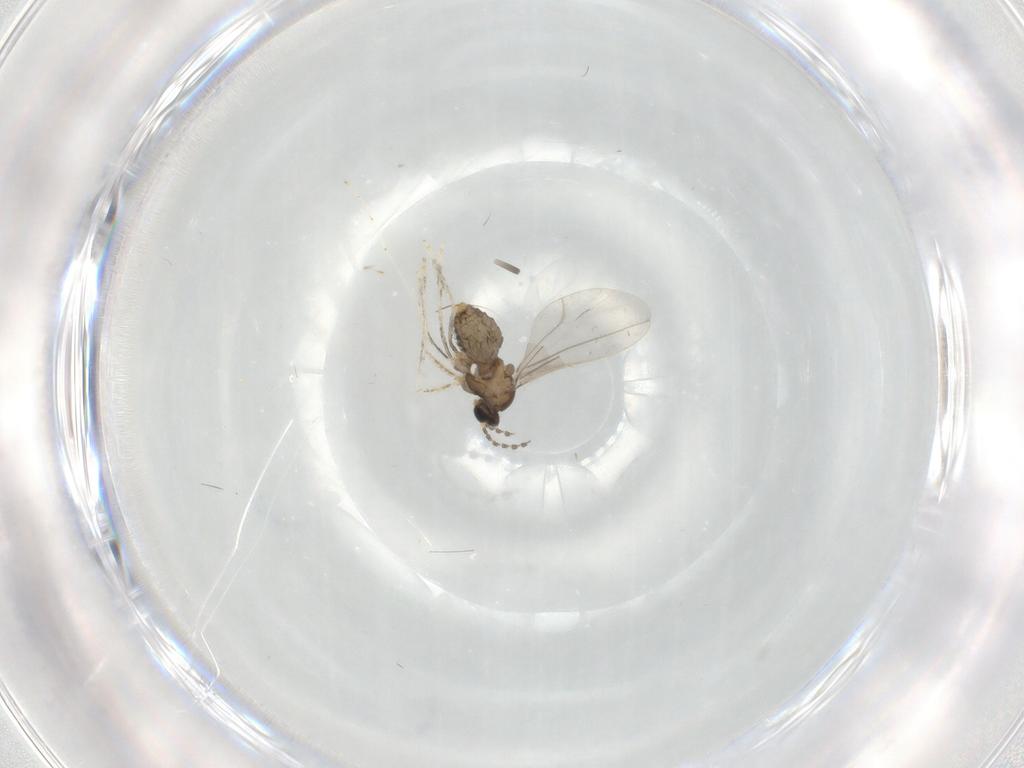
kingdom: Animalia
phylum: Arthropoda
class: Insecta
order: Diptera
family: Cecidomyiidae
